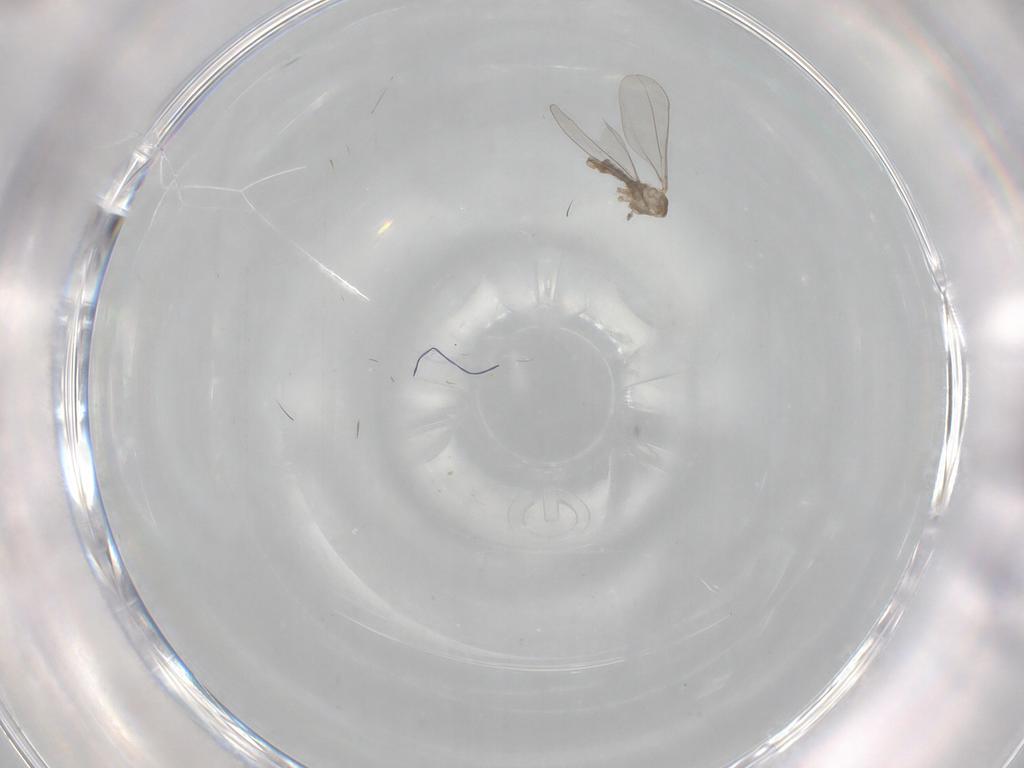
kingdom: Animalia
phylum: Arthropoda
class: Insecta
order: Diptera
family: Cecidomyiidae
